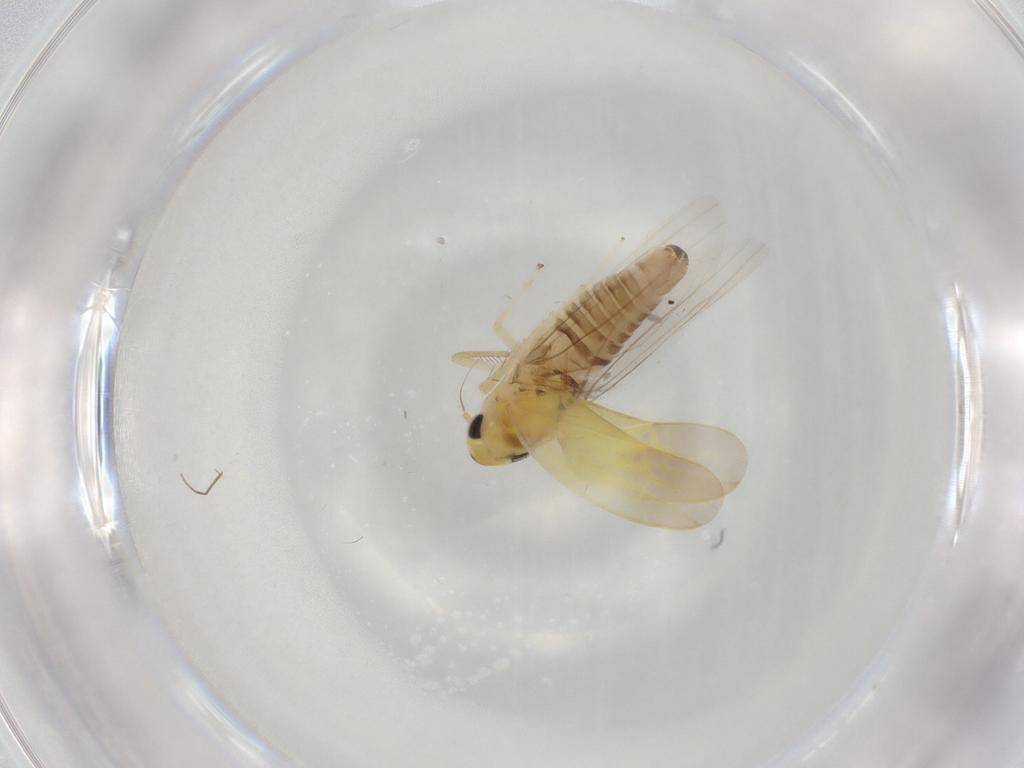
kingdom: Animalia
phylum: Arthropoda
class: Insecta
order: Hemiptera
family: Cicadellidae
